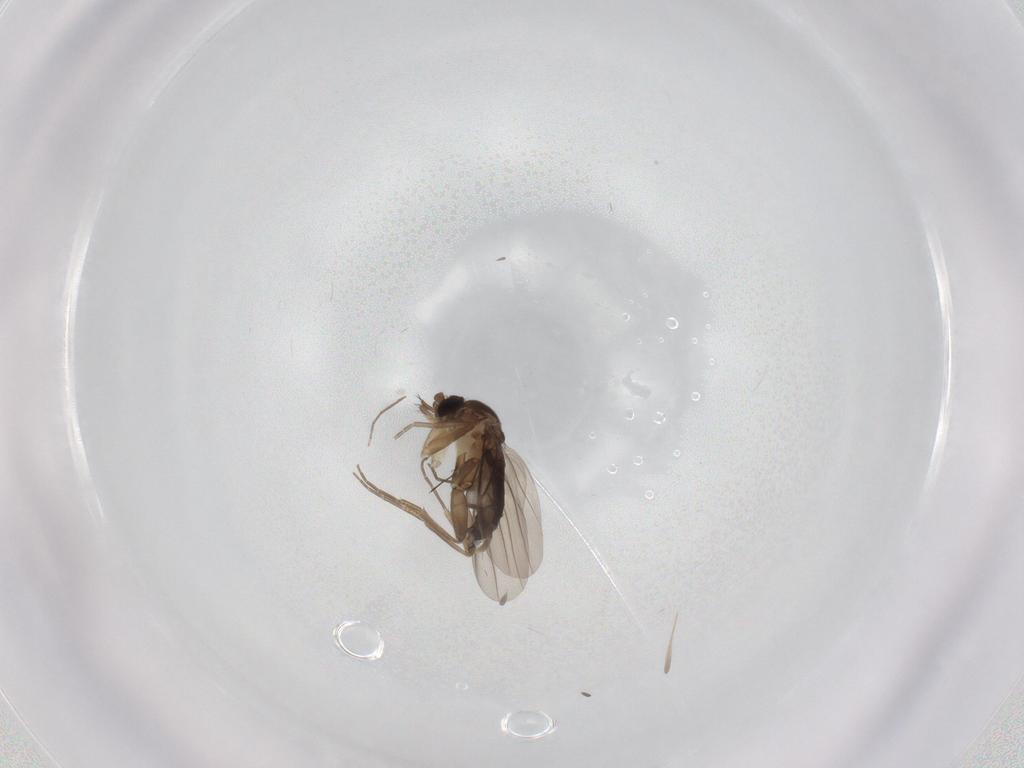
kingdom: Animalia
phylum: Arthropoda
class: Insecta
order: Diptera
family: Phoridae
